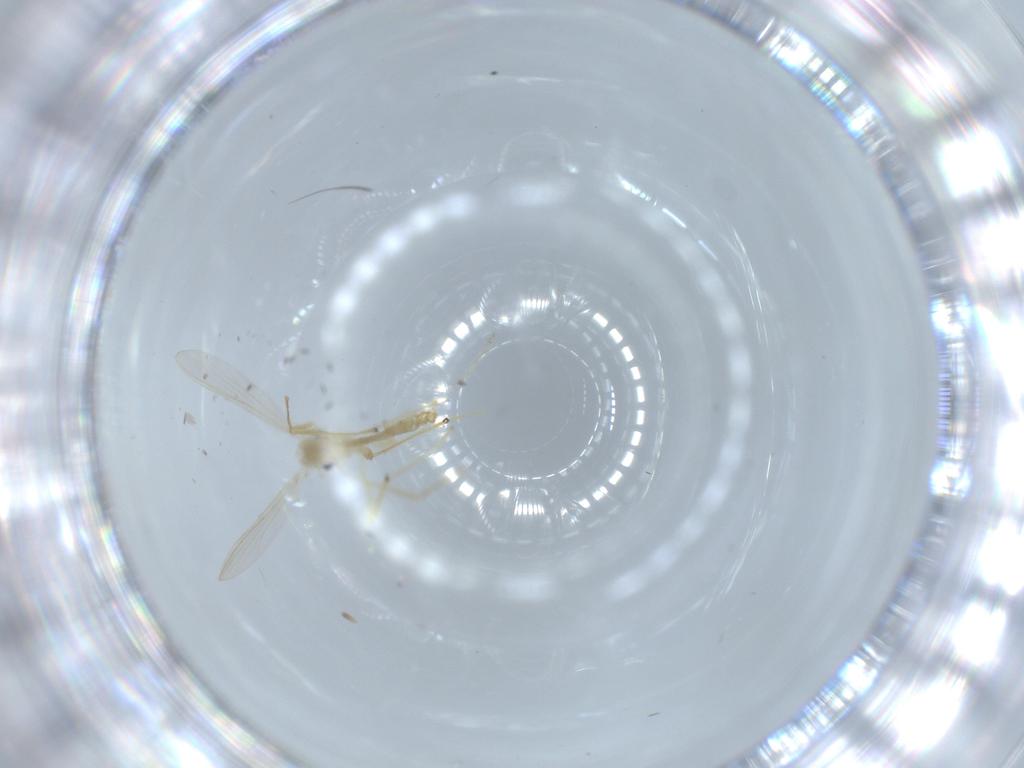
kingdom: Animalia
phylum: Arthropoda
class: Insecta
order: Diptera
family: Chironomidae
